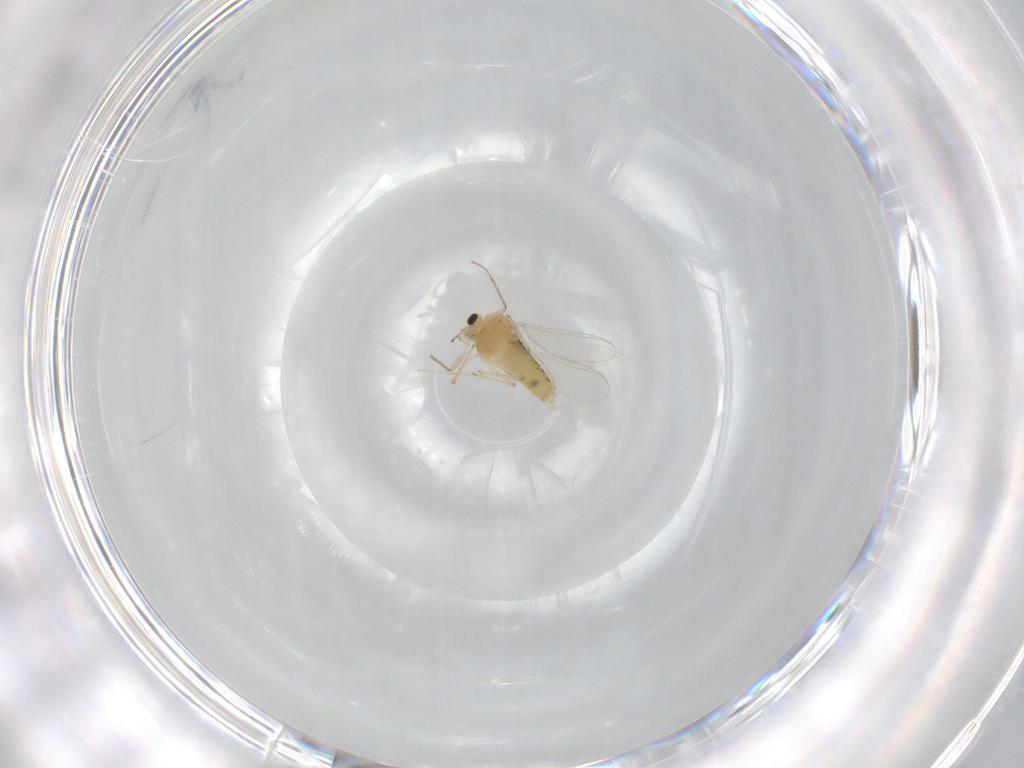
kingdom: Animalia
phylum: Arthropoda
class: Insecta
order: Diptera
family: Chironomidae
